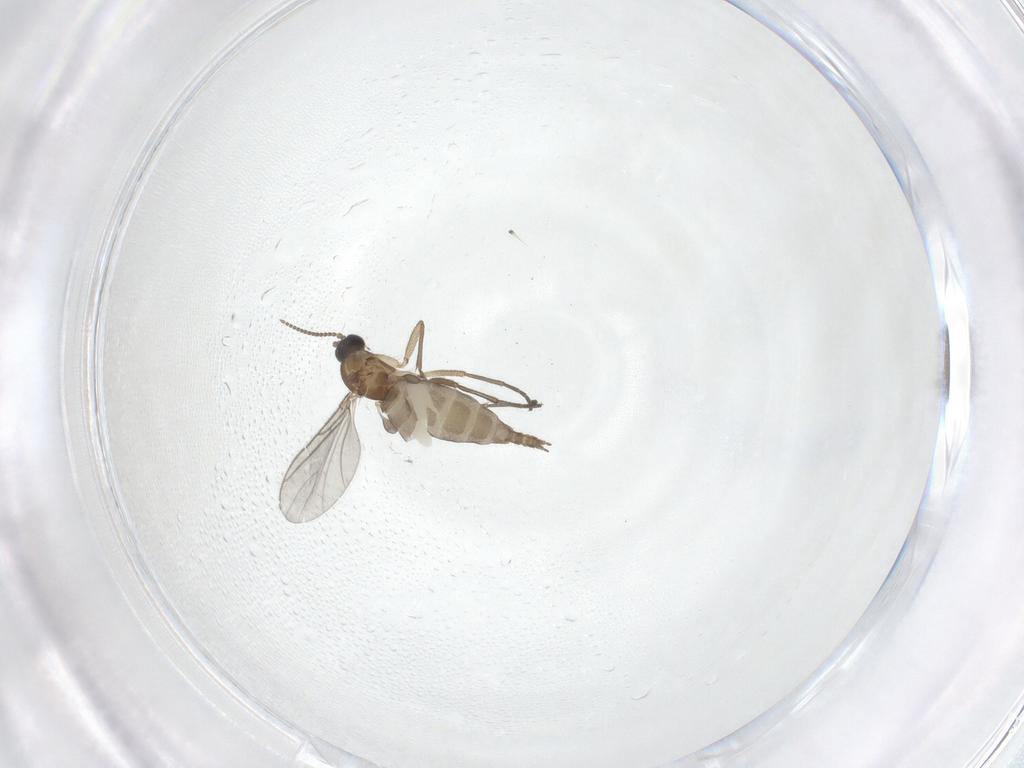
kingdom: Animalia
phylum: Arthropoda
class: Insecta
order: Diptera
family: Sciaridae
